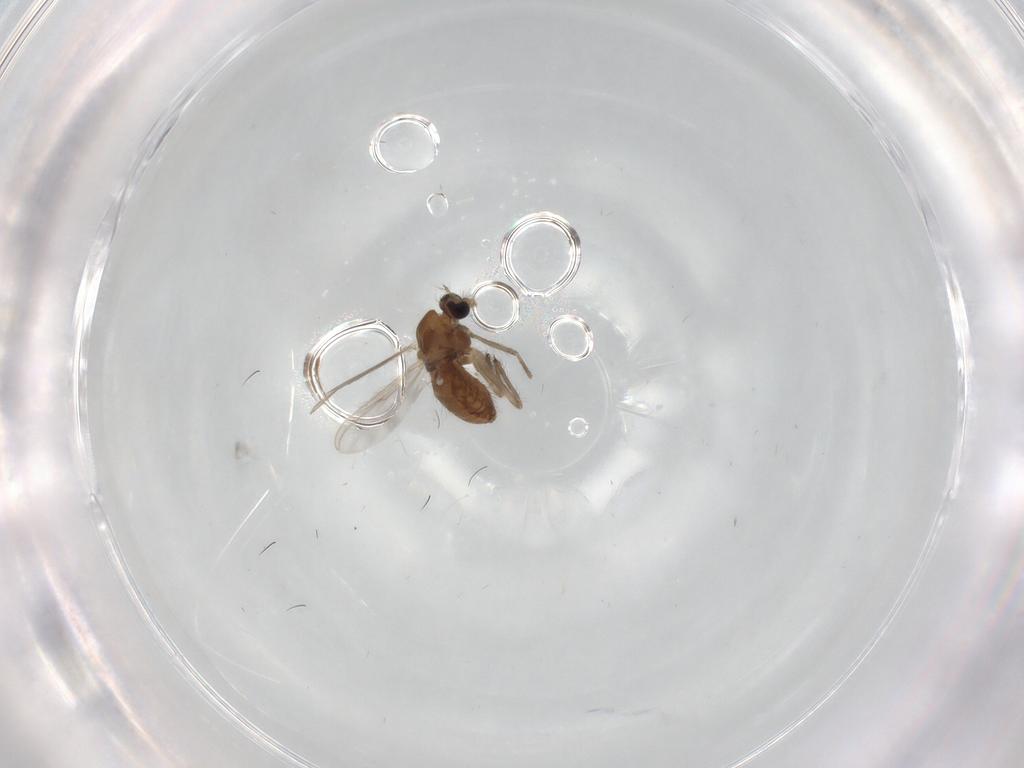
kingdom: Animalia
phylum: Arthropoda
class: Insecta
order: Diptera
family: Chironomidae
